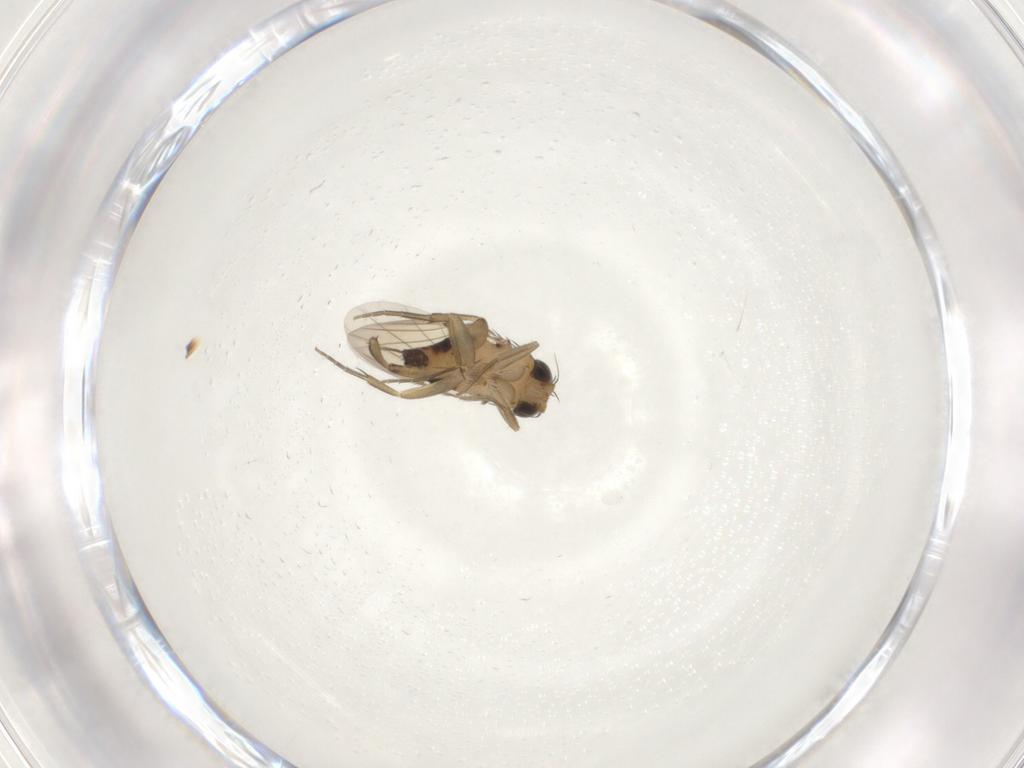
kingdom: Animalia
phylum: Arthropoda
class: Insecta
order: Diptera
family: Phoridae
